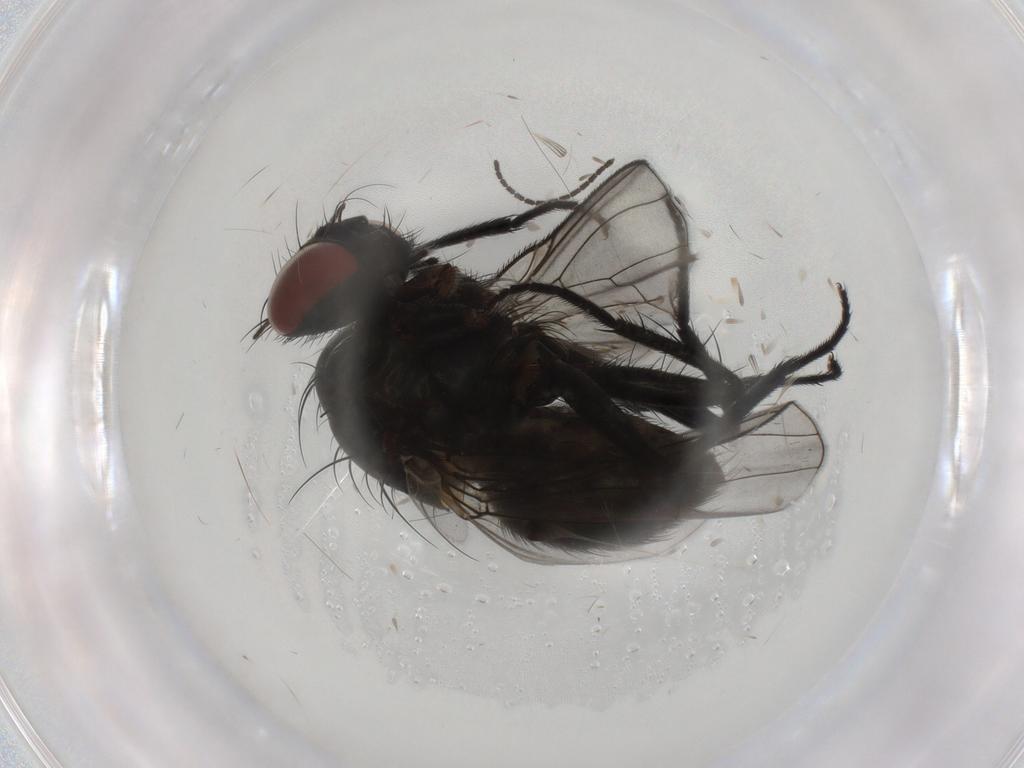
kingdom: Animalia
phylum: Arthropoda
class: Insecta
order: Diptera
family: Muscidae
